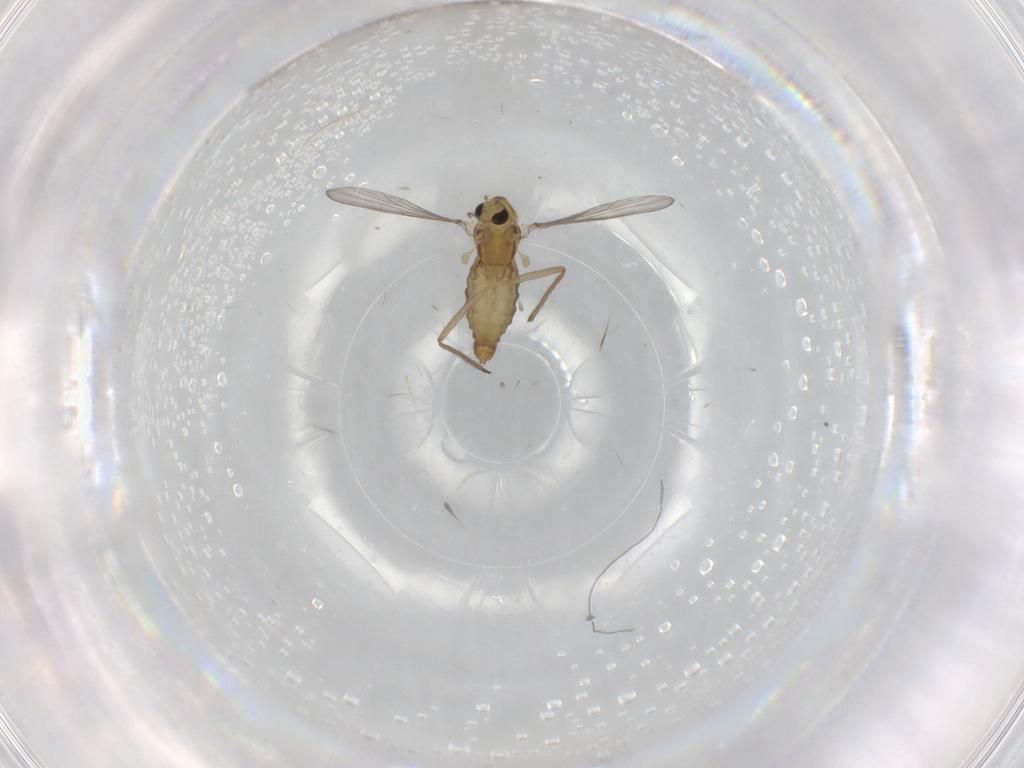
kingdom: Animalia
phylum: Arthropoda
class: Insecta
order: Diptera
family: Chironomidae
